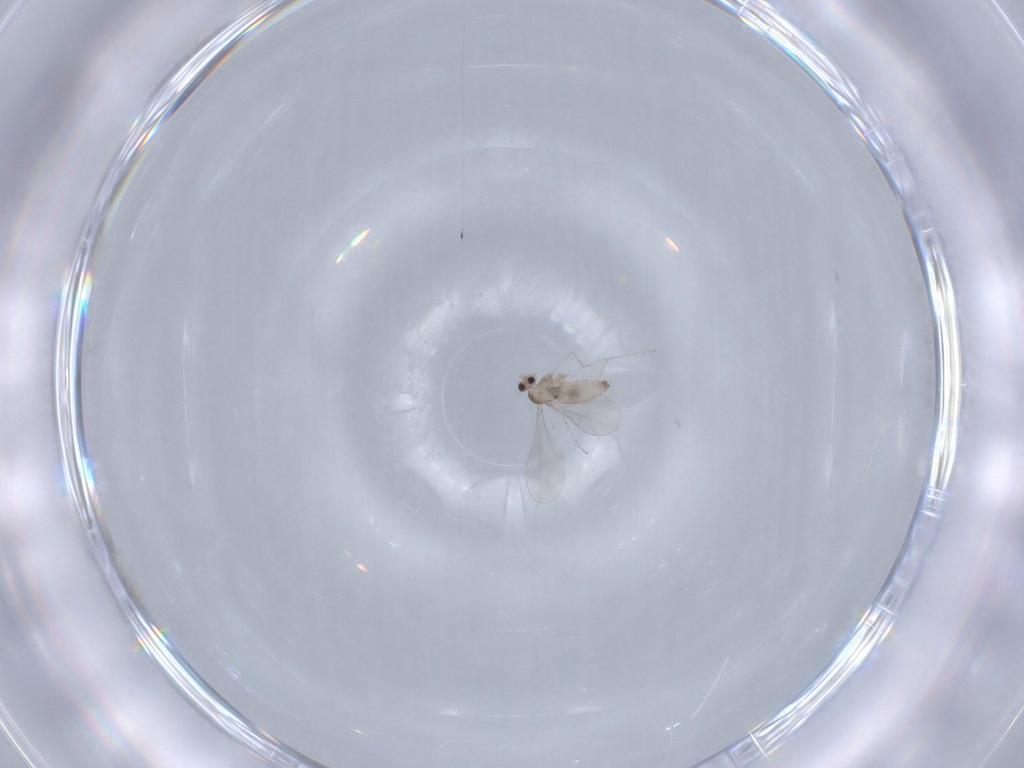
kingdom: Animalia
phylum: Arthropoda
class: Insecta
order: Diptera
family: Cecidomyiidae
